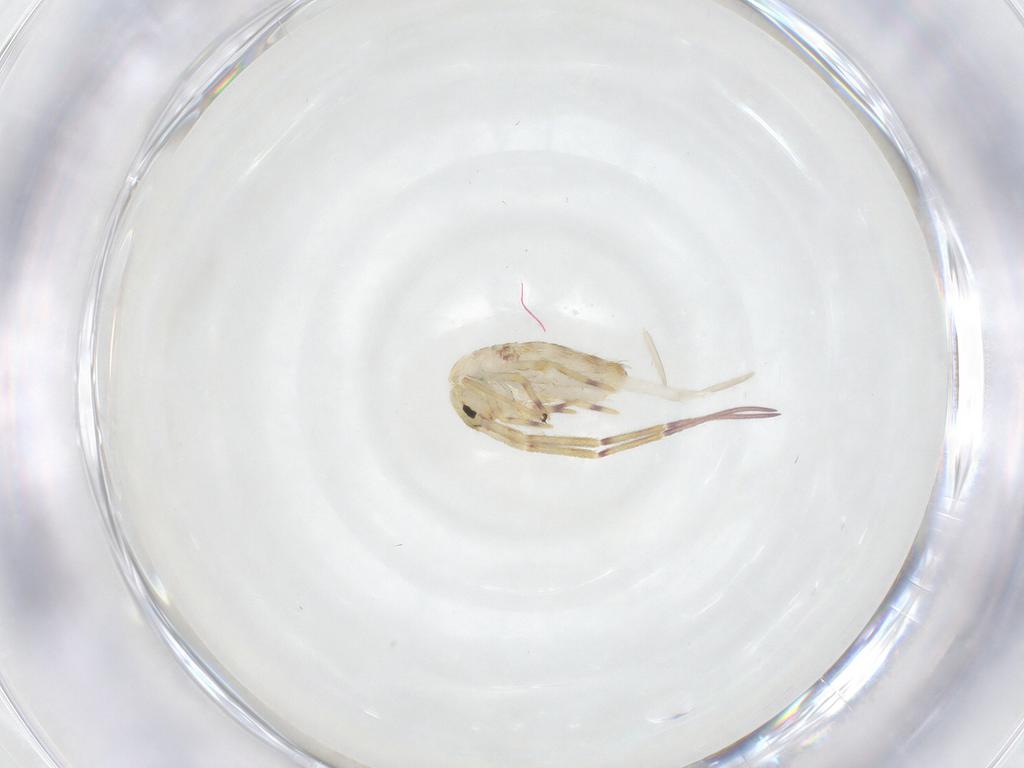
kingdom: Animalia
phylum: Arthropoda
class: Collembola
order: Entomobryomorpha
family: Entomobryidae
